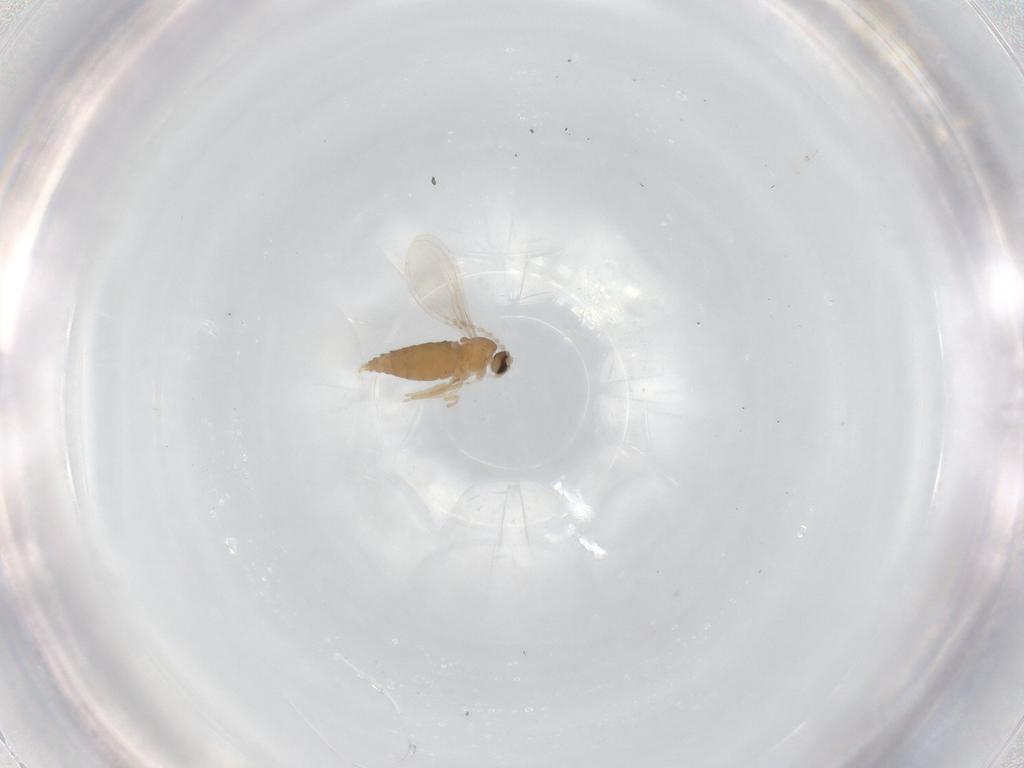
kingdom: Animalia
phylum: Arthropoda
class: Insecta
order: Diptera
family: Cecidomyiidae
